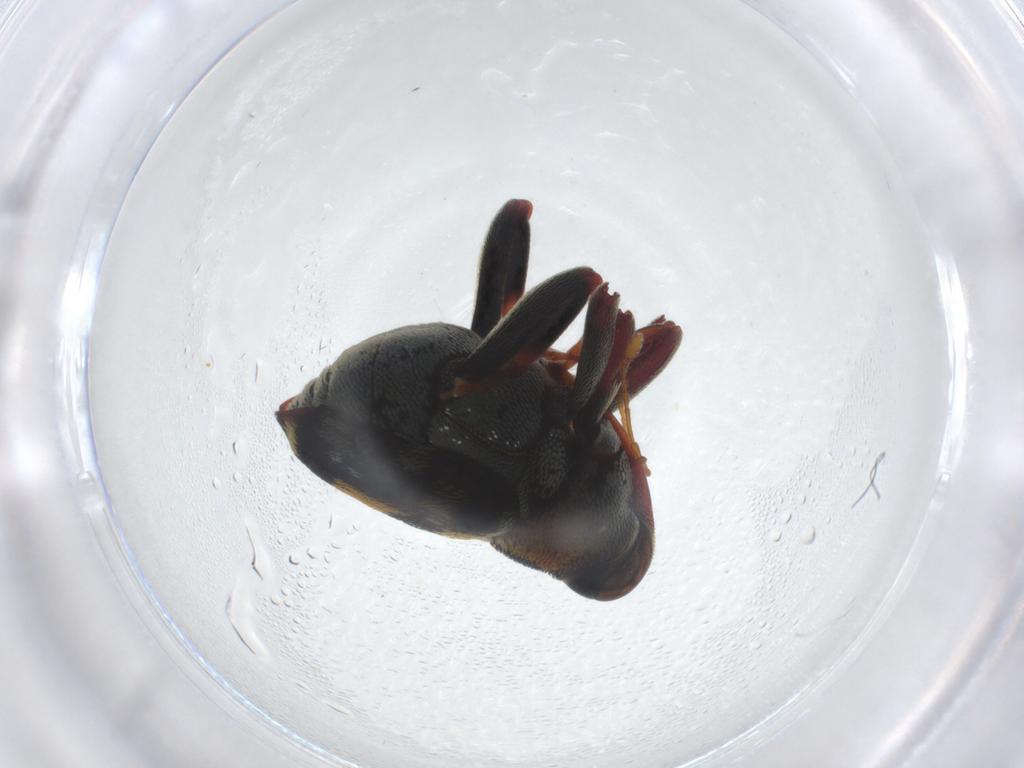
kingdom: Animalia
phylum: Arthropoda
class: Insecta
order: Coleoptera
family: Curculionidae
